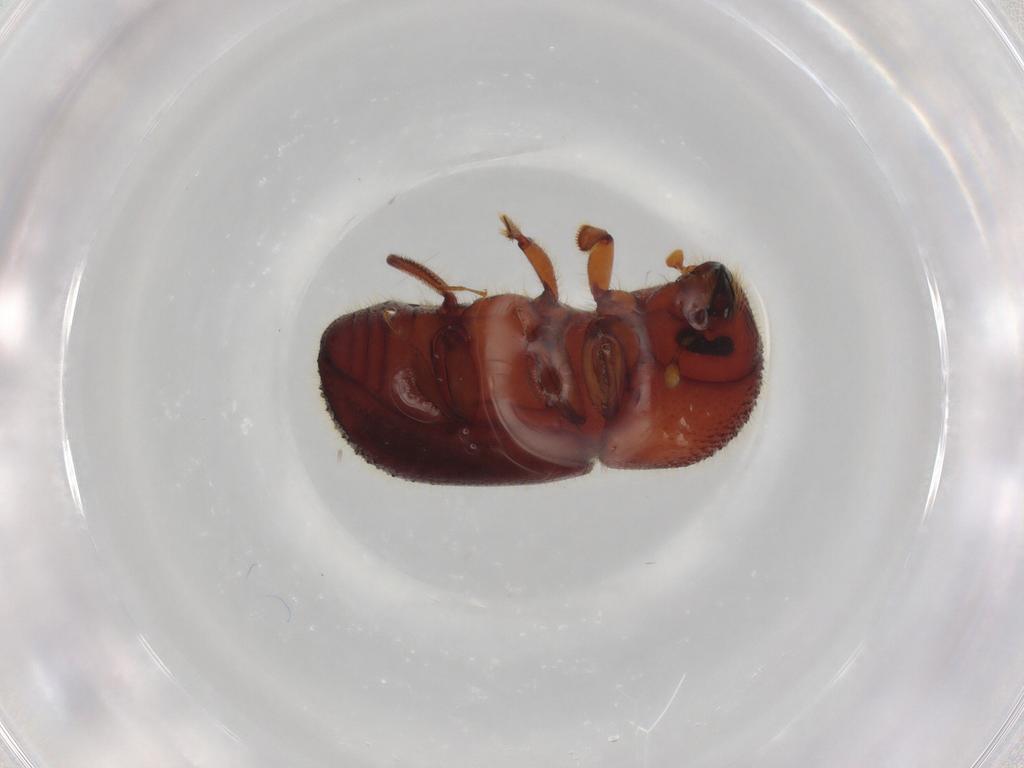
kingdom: Animalia
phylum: Arthropoda
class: Insecta
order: Coleoptera
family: Curculionidae
